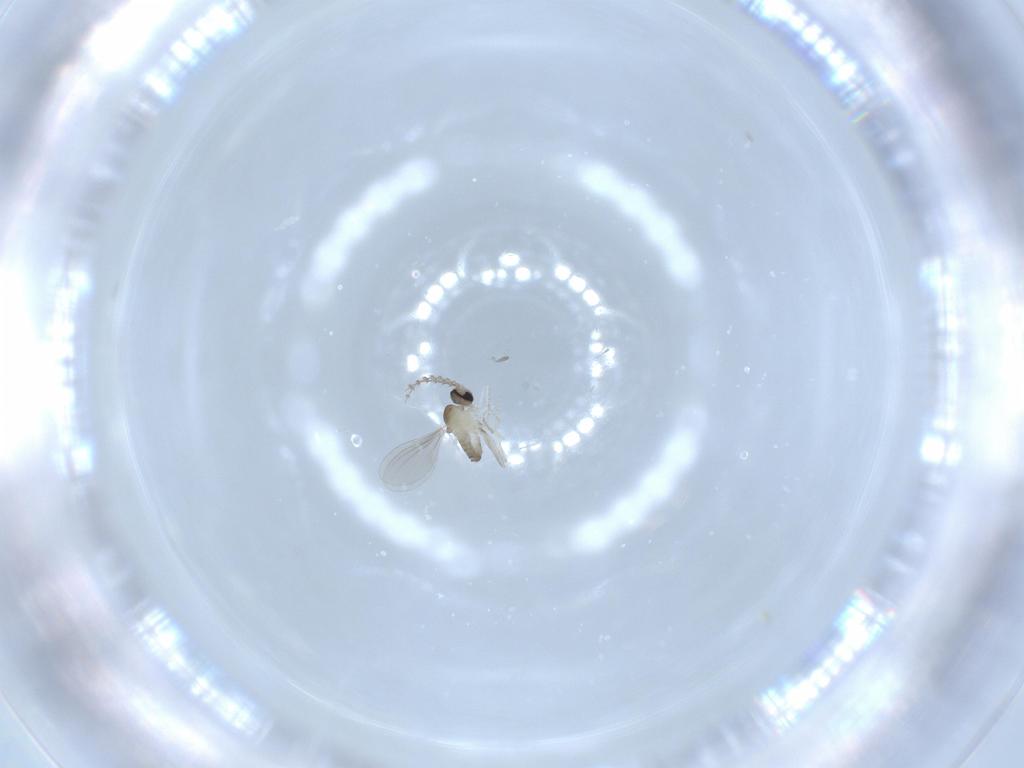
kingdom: Animalia
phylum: Arthropoda
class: Insecta
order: Diptera
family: Cecidomyiidae
